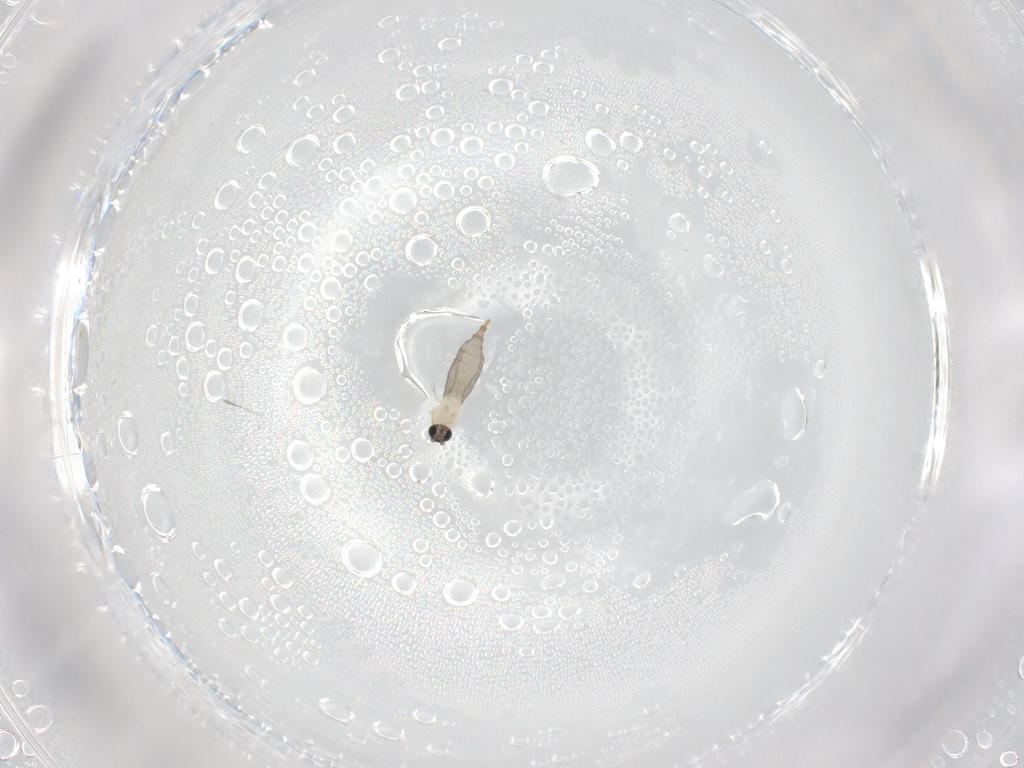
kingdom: Animalia
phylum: Arthropoda
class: Insecta
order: Diptera
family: Cecidomyiidae
